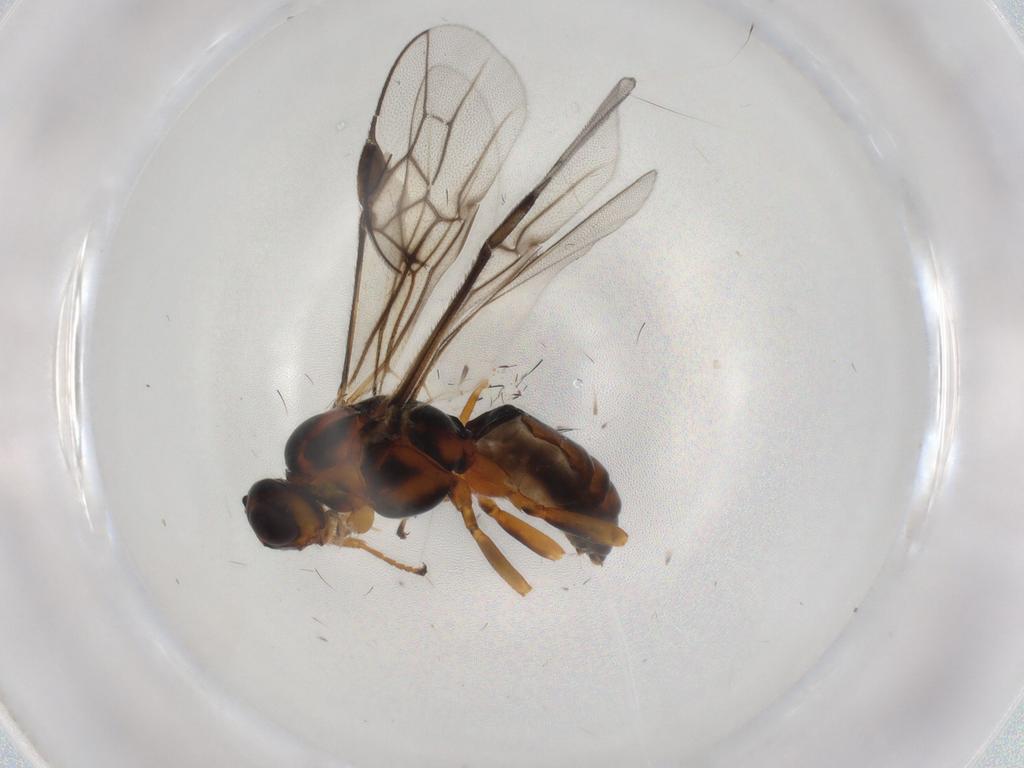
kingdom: Animalia
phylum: Arthropoda
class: Insecta
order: Hymenoptera
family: Braconidae
